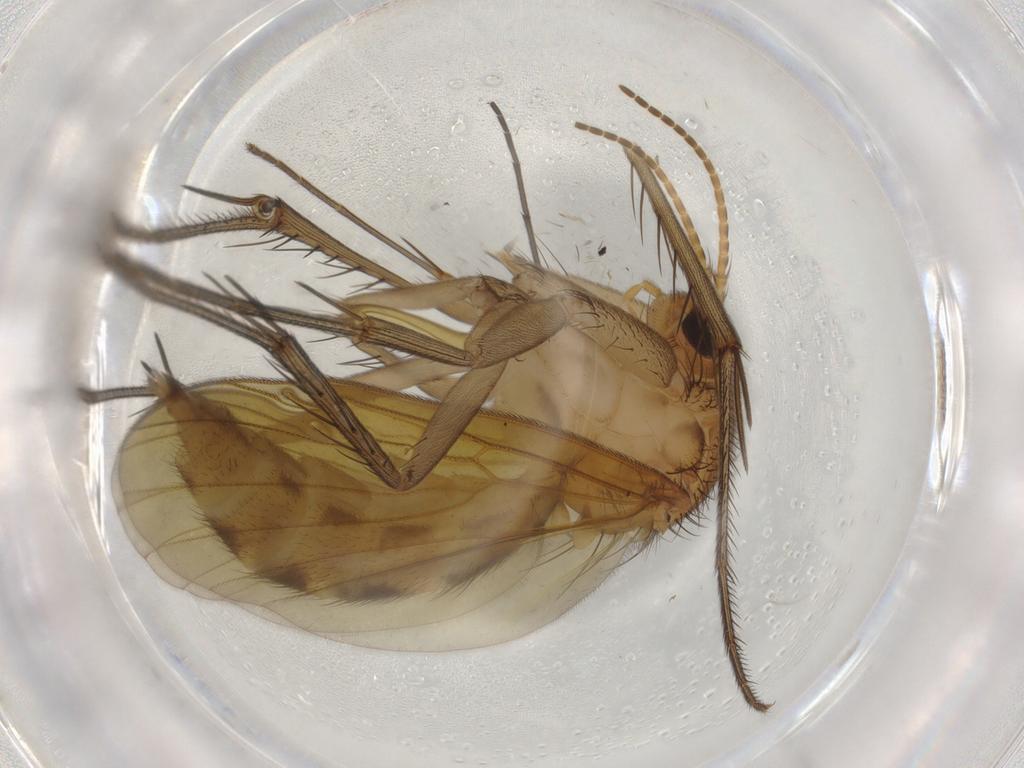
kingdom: Animalia
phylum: Arthropoda
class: Insecta
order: Diptera
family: Mycetophilidae
